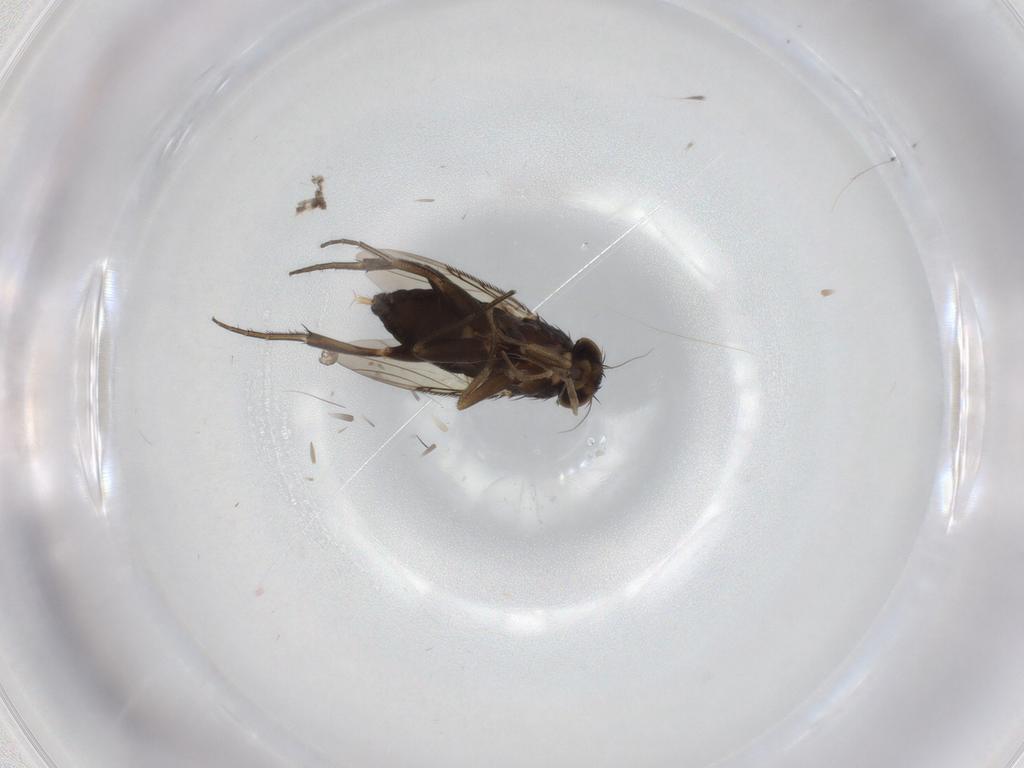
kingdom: Animalia
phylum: Arthropoda
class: Insecta
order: Diptera
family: Phoridae
